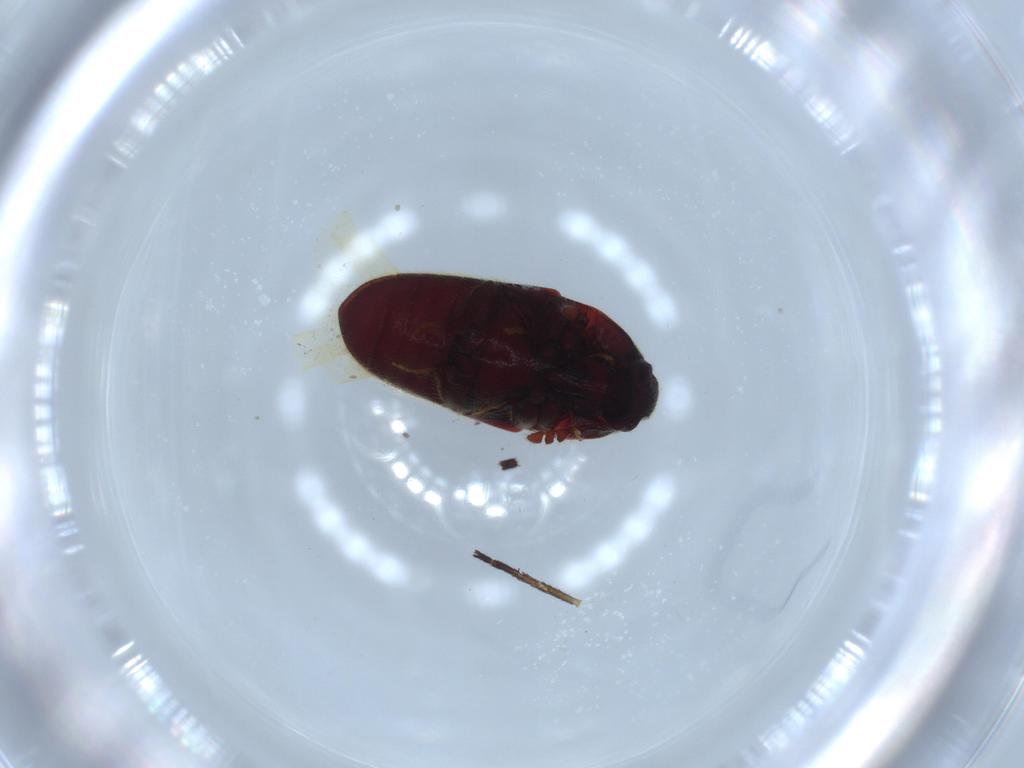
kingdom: Animalia
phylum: Arthropoda
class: Insecta
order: Coleoptera
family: Throscidae
